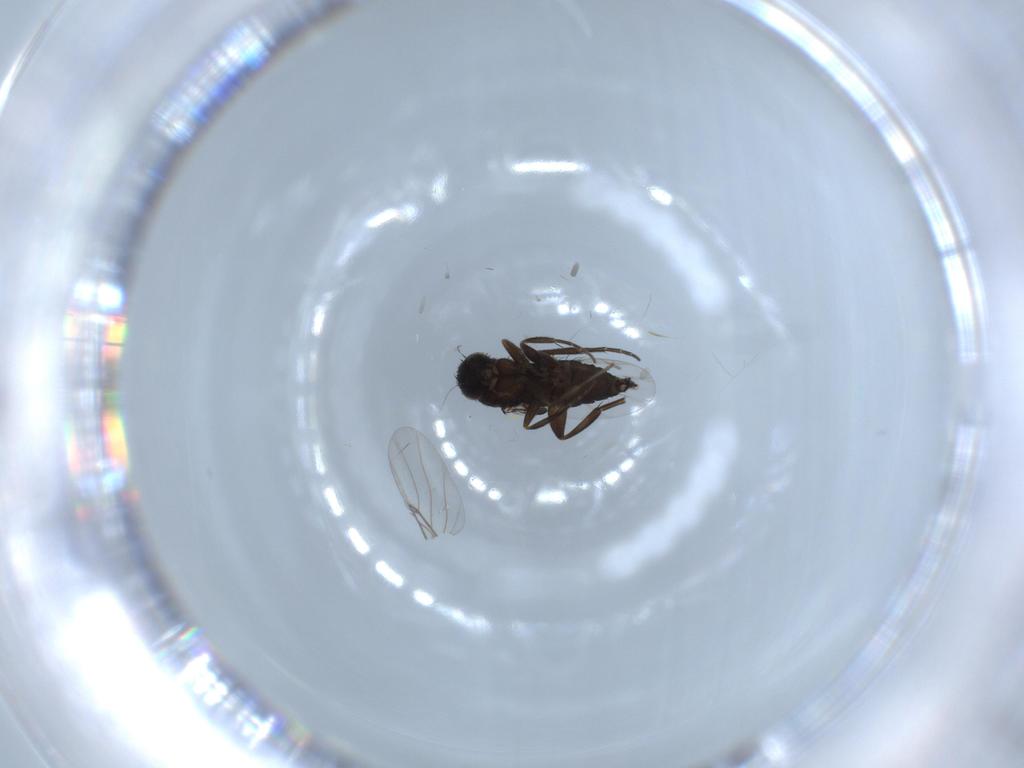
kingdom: Animalia
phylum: Arthropoda
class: Insecta
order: Diptera
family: Phoridae
